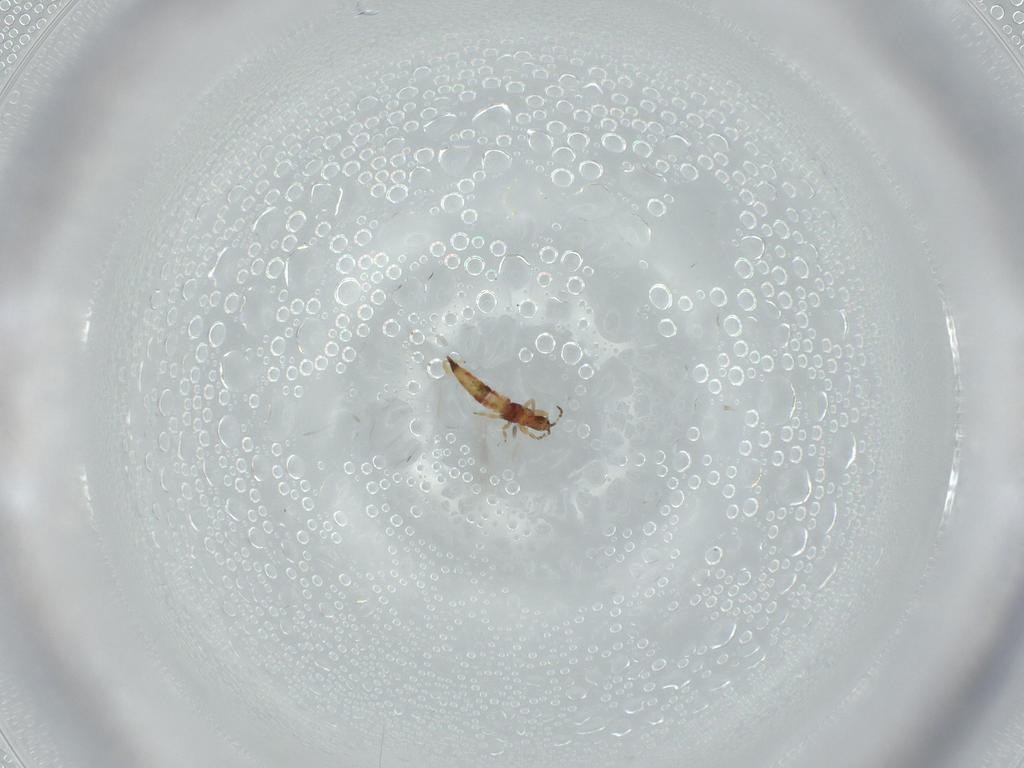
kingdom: Animalia
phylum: Arthropoda
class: Insecta
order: Thysanoptera
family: Phlaeothripidae
